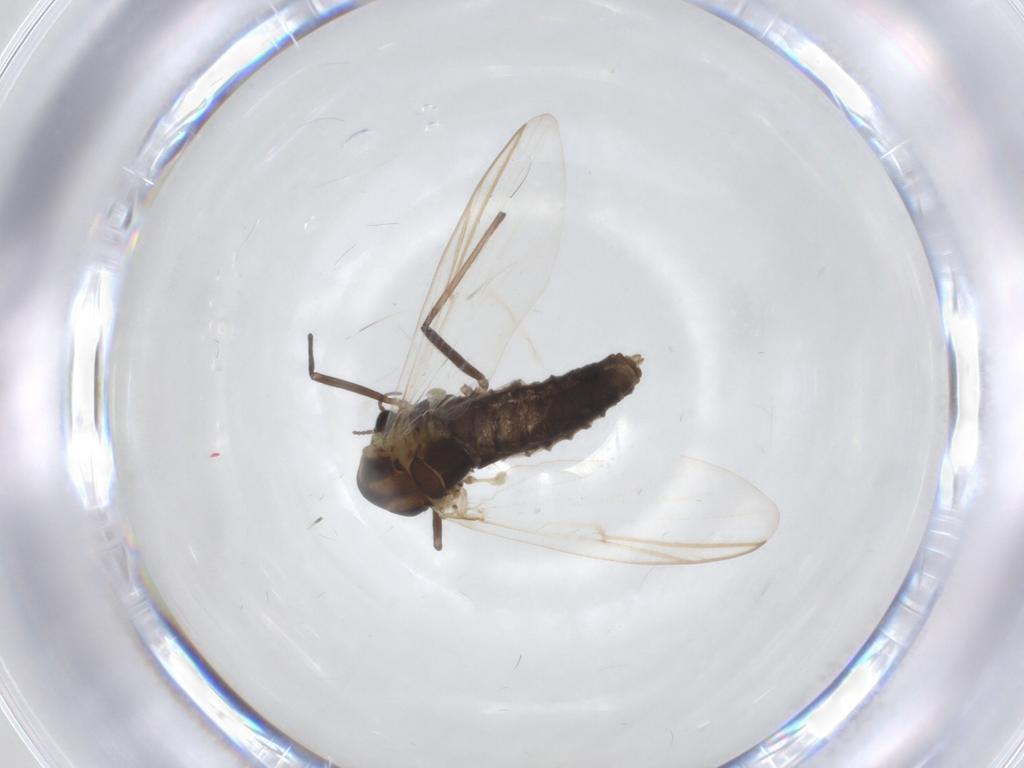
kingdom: Animalia
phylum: Arthropoda
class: Insecta
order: Diptera
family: Chironomidae
